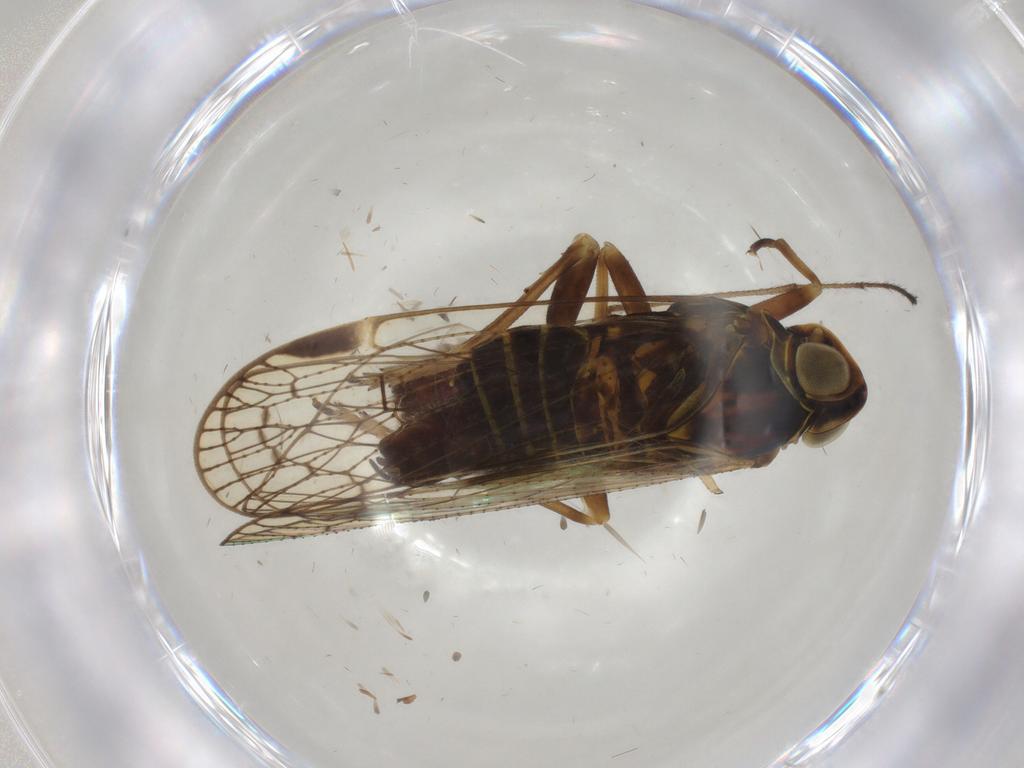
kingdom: Animalia
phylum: Arthropoda
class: Insecta
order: Hemiptera
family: Cixiidae
